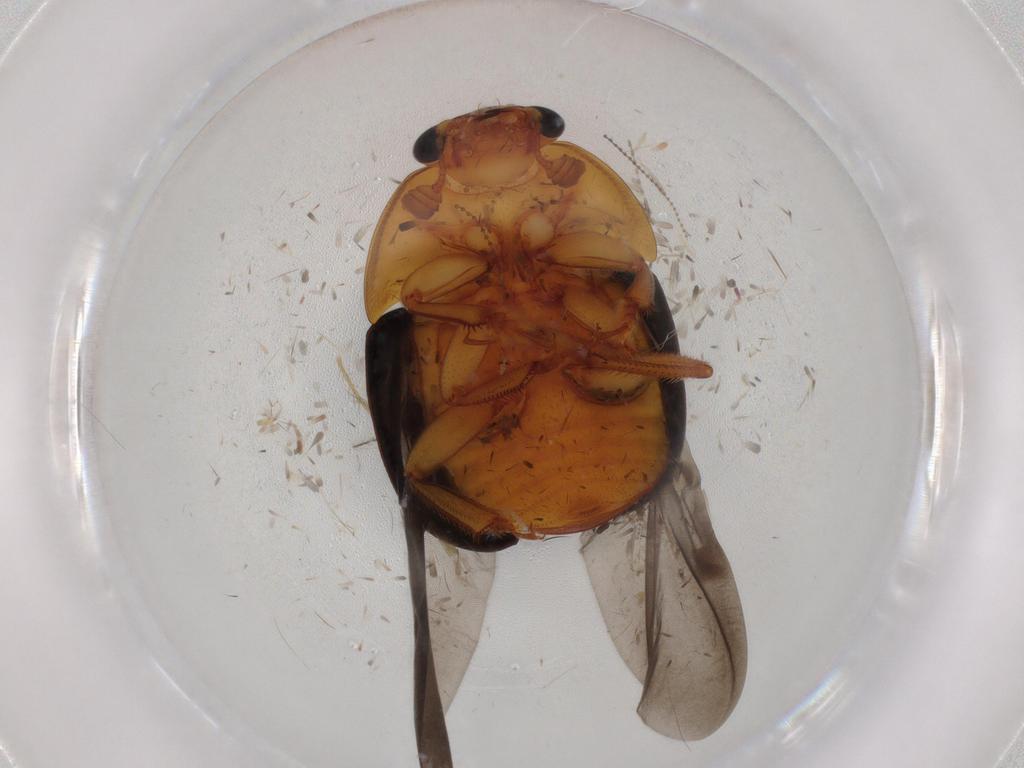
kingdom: Animalia
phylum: Arthropoda
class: Insecta
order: Coleoptera
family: Nitidulidae
